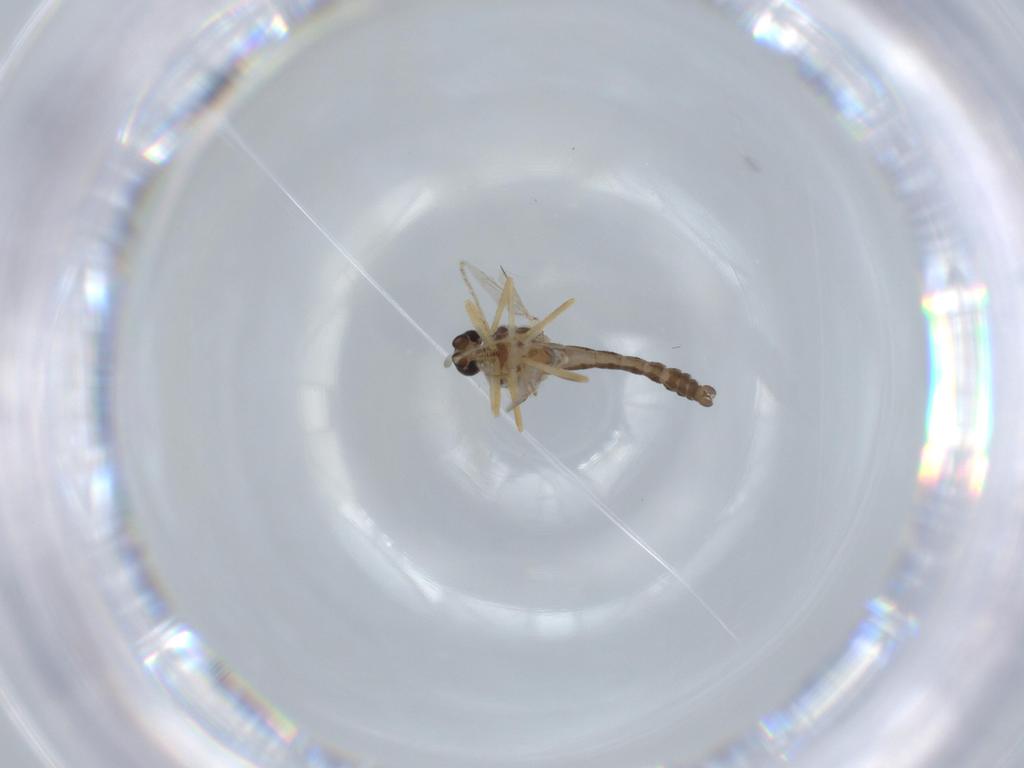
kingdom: Animalia
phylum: Arthropoda
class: Insecta
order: Diptera
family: Ceratopogonidae
